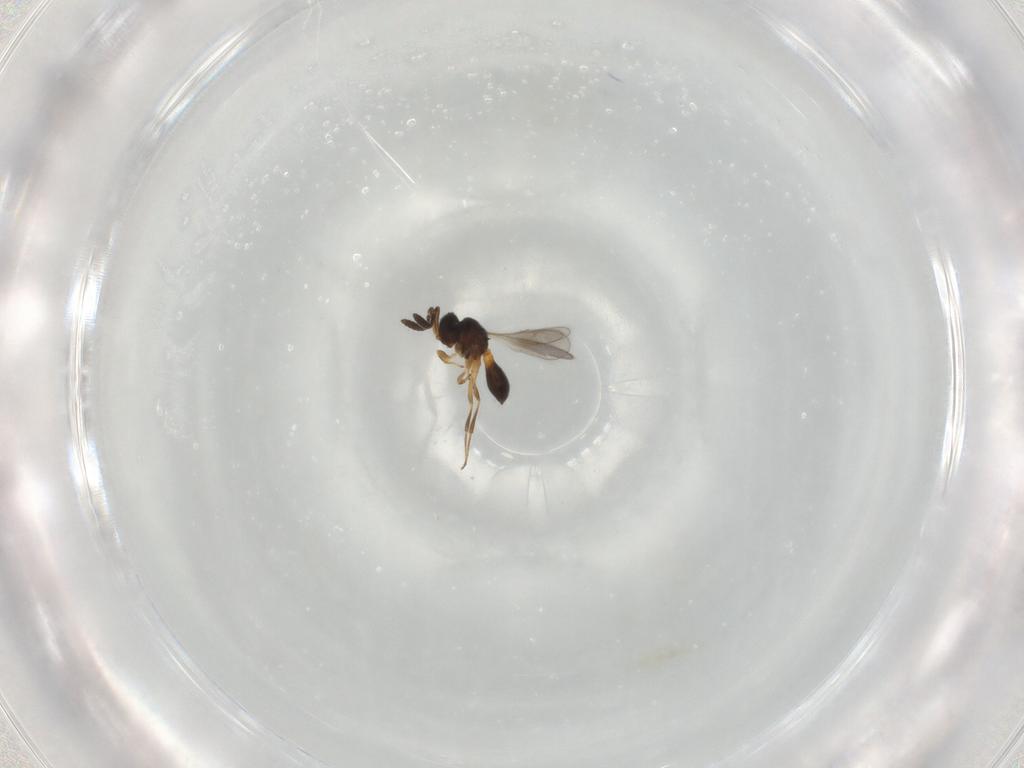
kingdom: Animalia
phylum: Arthropoda
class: Insecta
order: Hymenoptera
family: Scelionidae
